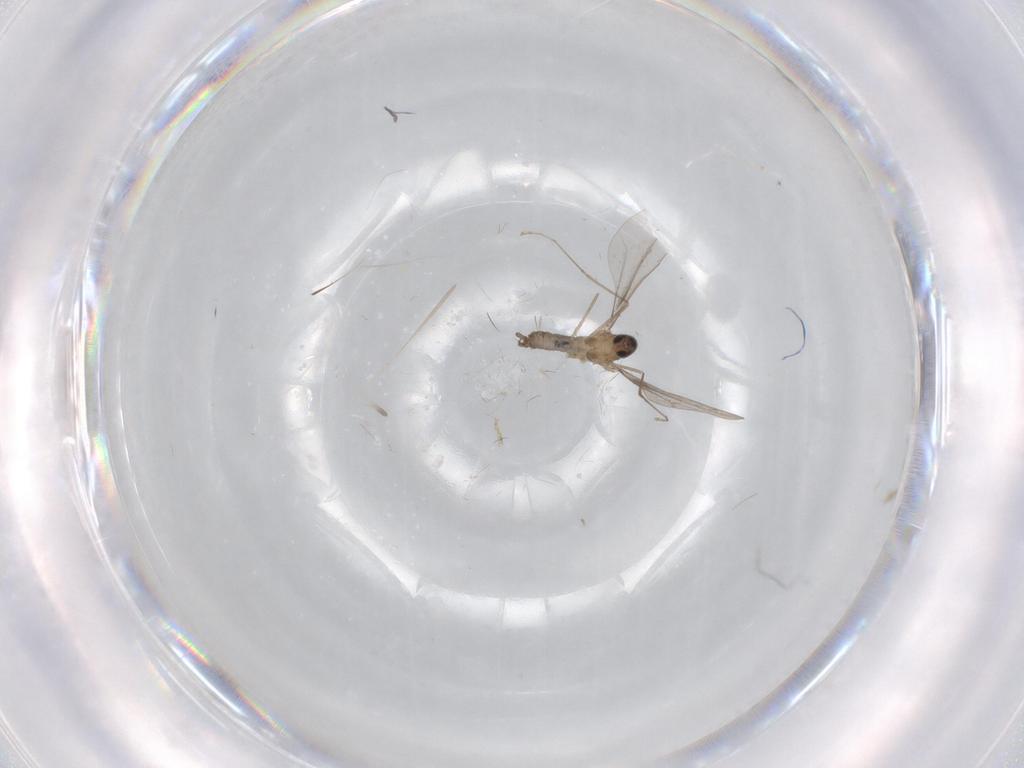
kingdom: Animalia
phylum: Arthropoda
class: Insecta
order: Diptera
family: Cecidomyiidae
